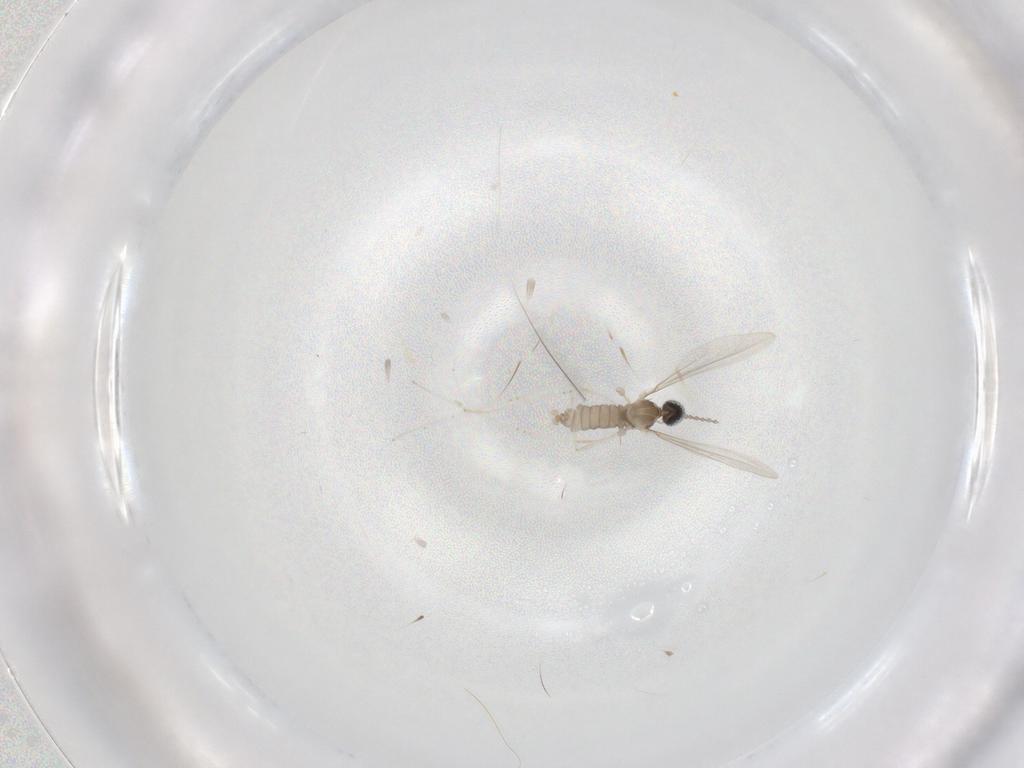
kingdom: Animalia
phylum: Arthropoda
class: Insecta
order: Diptera
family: Cecidomyiidae
